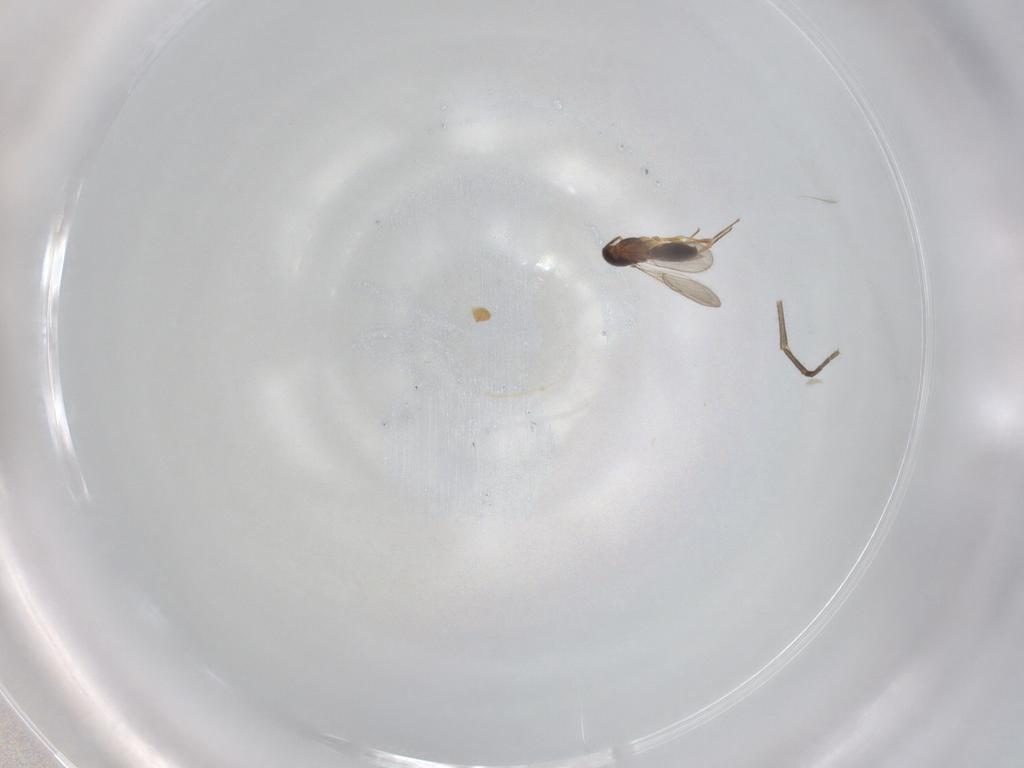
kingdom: Animalia
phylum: Arthropoda
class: Insecta
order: Hymenoptera
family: Scelionidae
